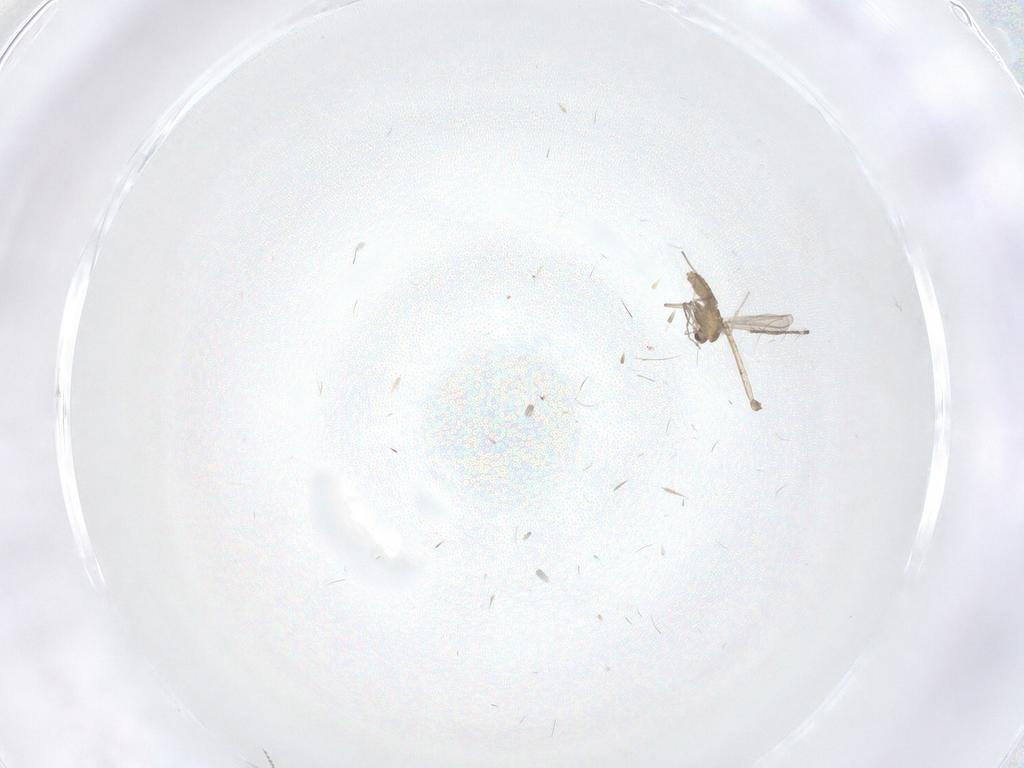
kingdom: Animalia
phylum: Arthropoda
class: Insecta
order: Diptera
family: Cecidomyiidae
